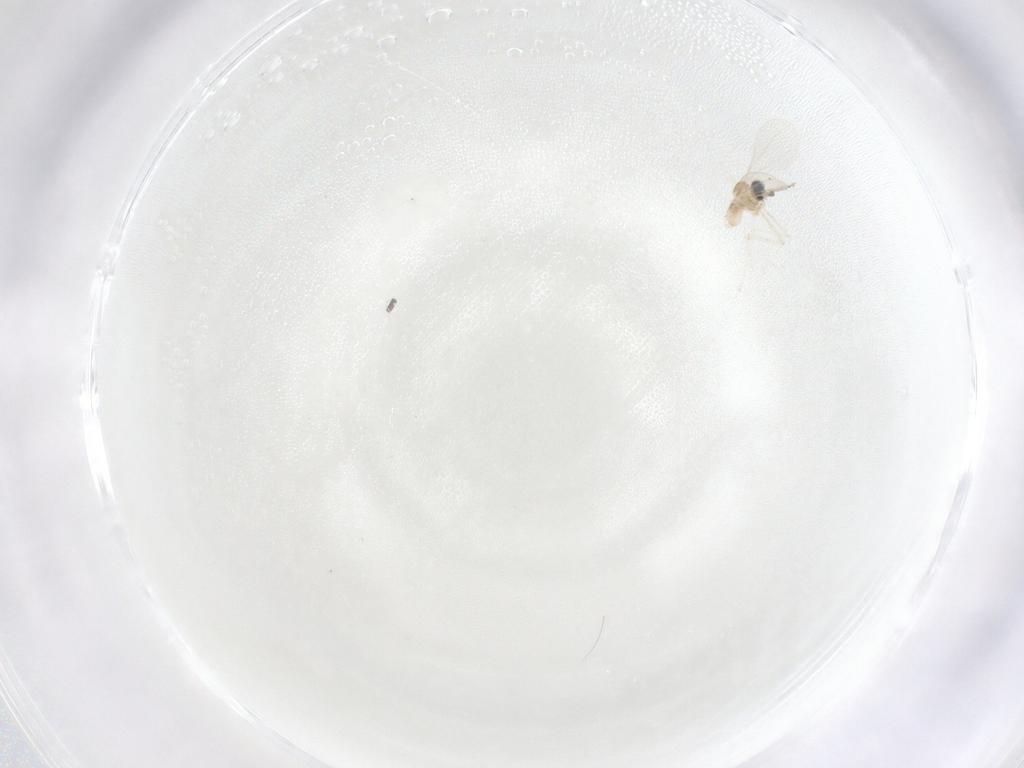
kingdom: Animalia
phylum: Arthropoda
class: Insecta
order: Diptera
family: Cecidomyiidae
